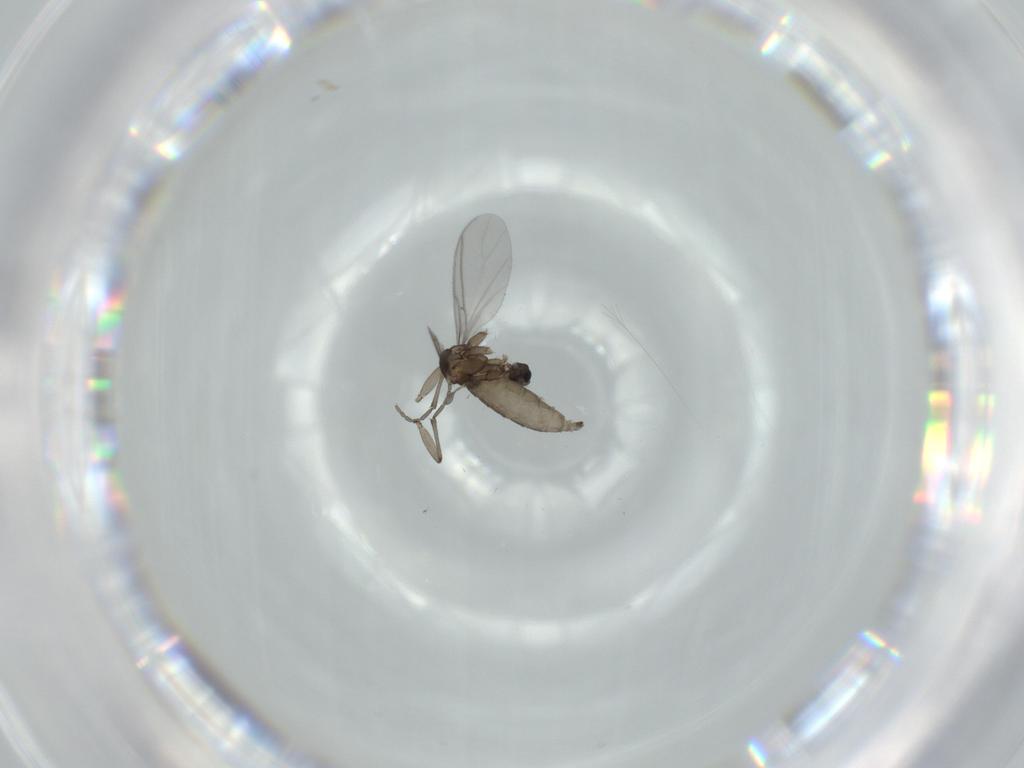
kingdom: Animalia
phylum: Arthropoda
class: Insecta
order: Diptera
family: Sciaridae
